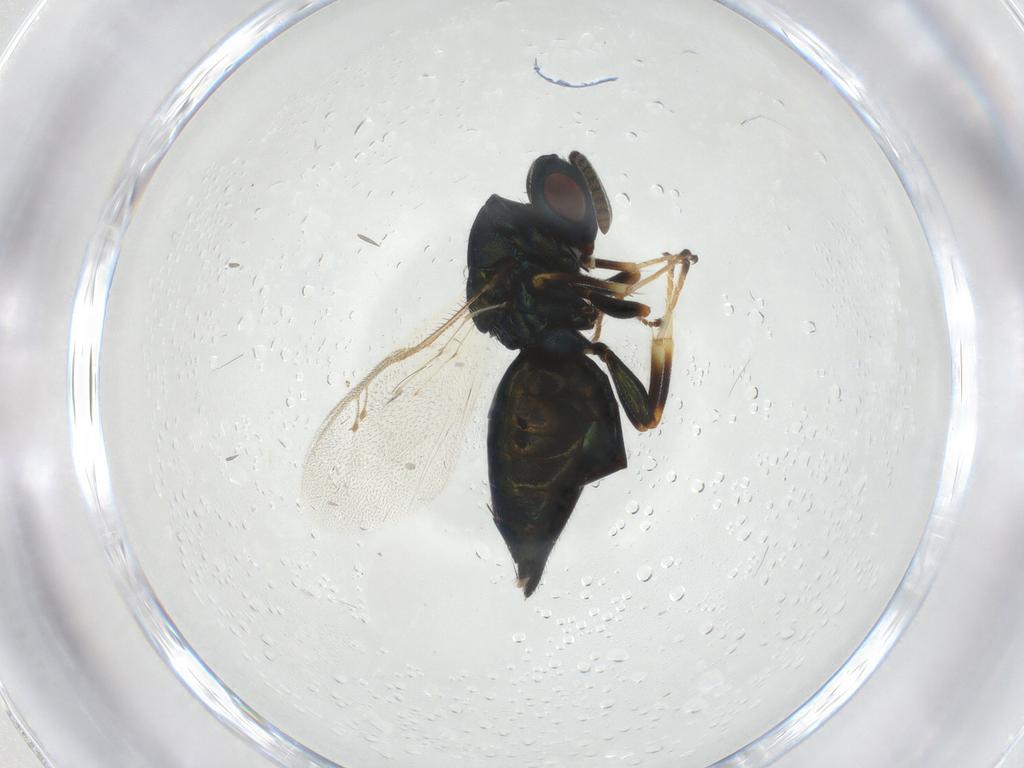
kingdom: Animalia
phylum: Arthropoda
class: Insecta
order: Hymenoptera
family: Pteromalidae
